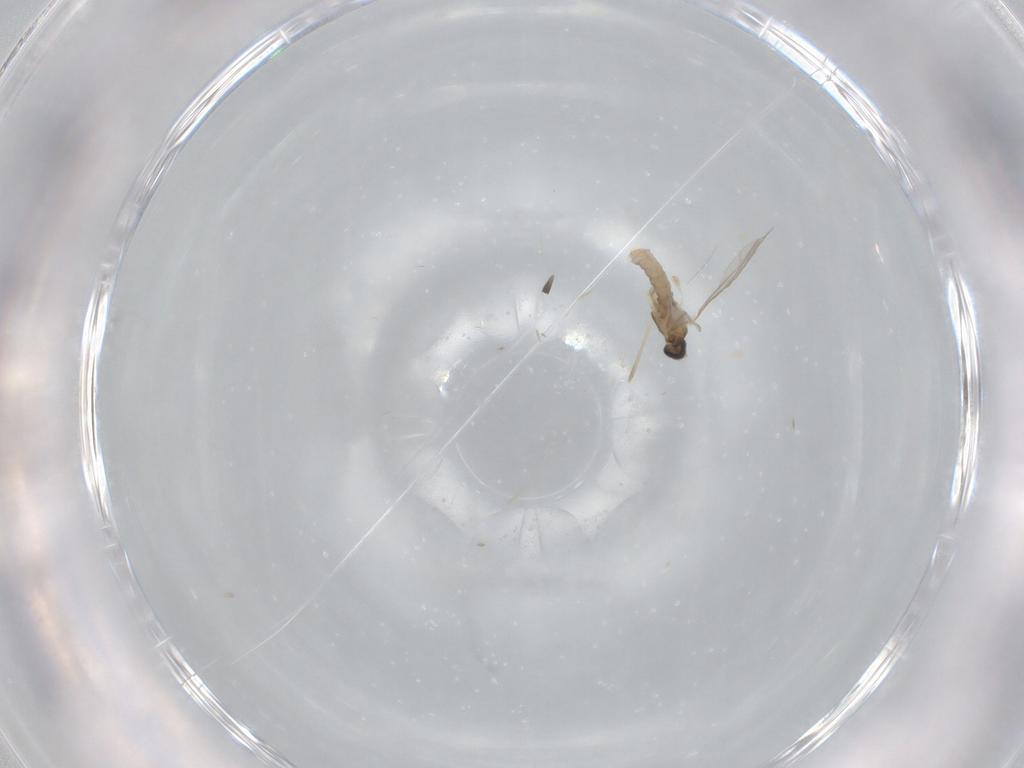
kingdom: Animalia
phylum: Arthropoda
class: Insecta
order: Diptera
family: Cecidomyiidae
